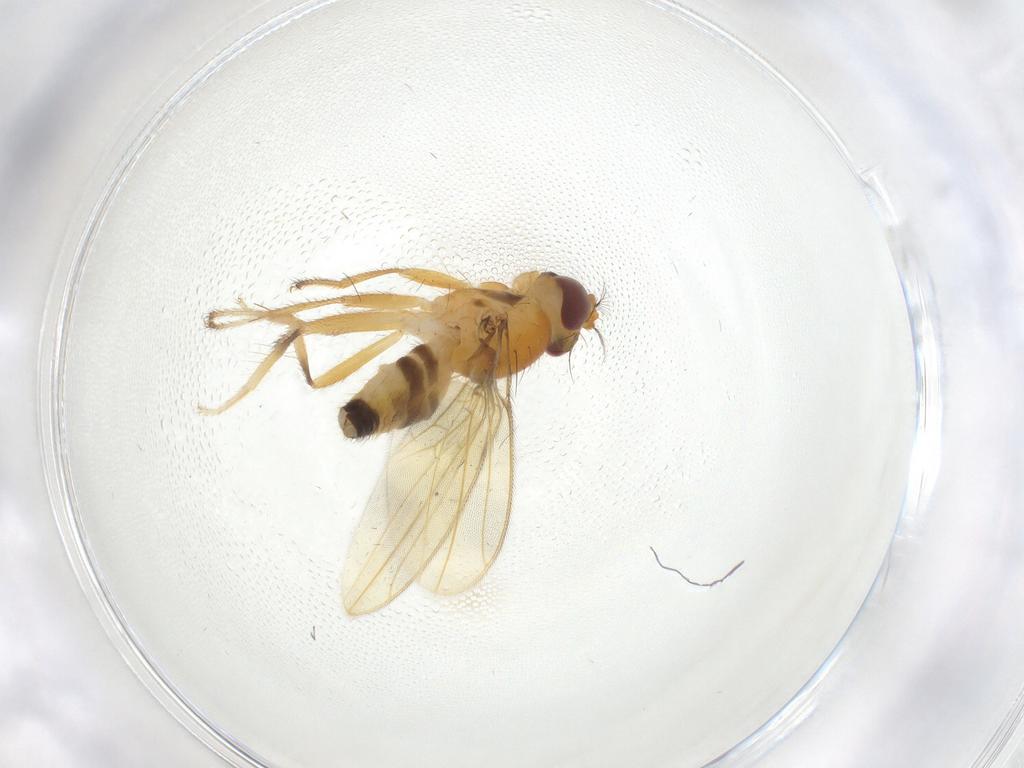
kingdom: Animalia
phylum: Arthropoda
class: Insecta
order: Diptera
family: Periscelididae
